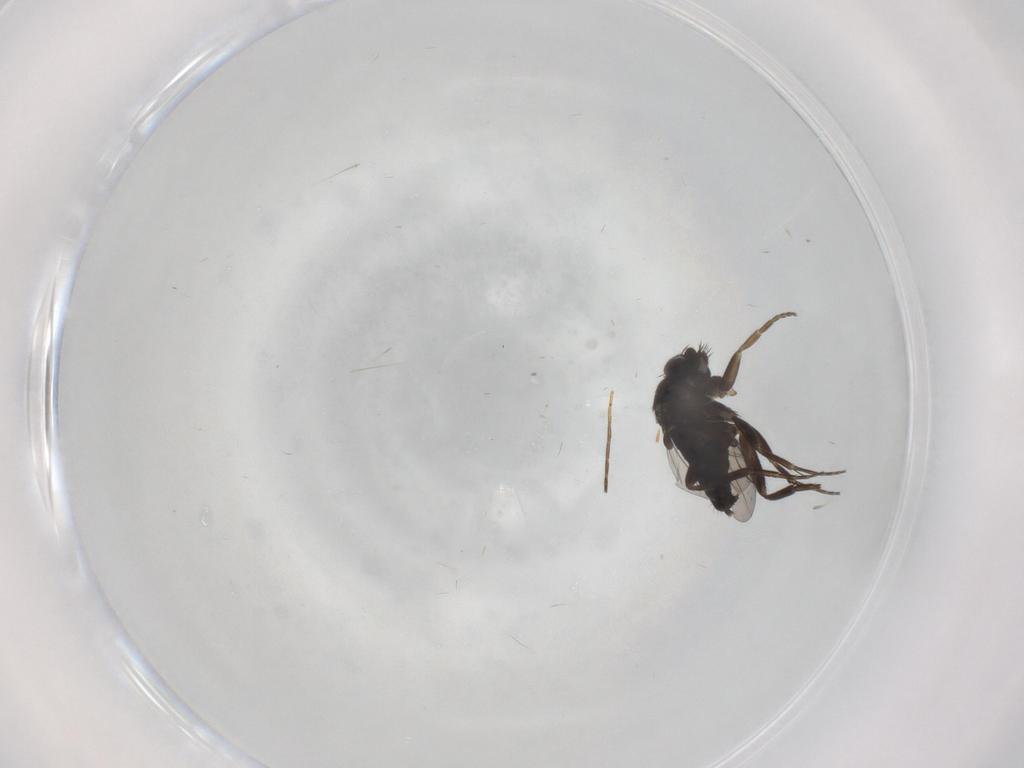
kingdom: Animalia
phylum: Arthropoda
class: Insecta
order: Diptera
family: Phoridae
